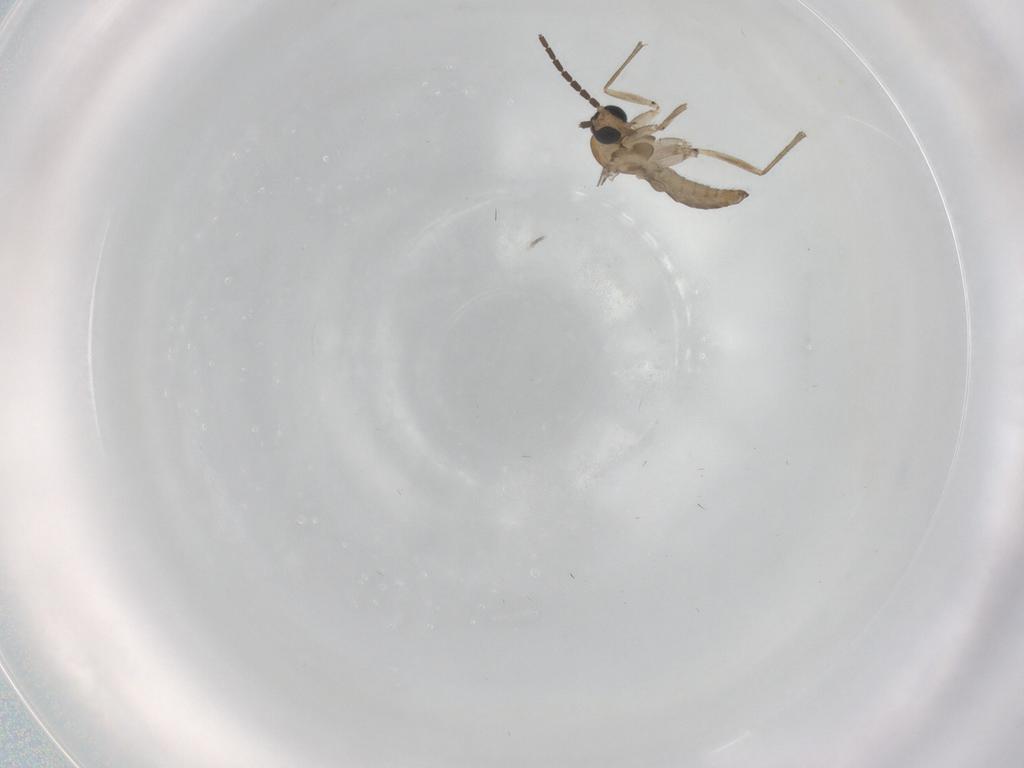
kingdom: Animalia
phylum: Arthropoda
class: Insecta
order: Diptera
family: Sciaridae
